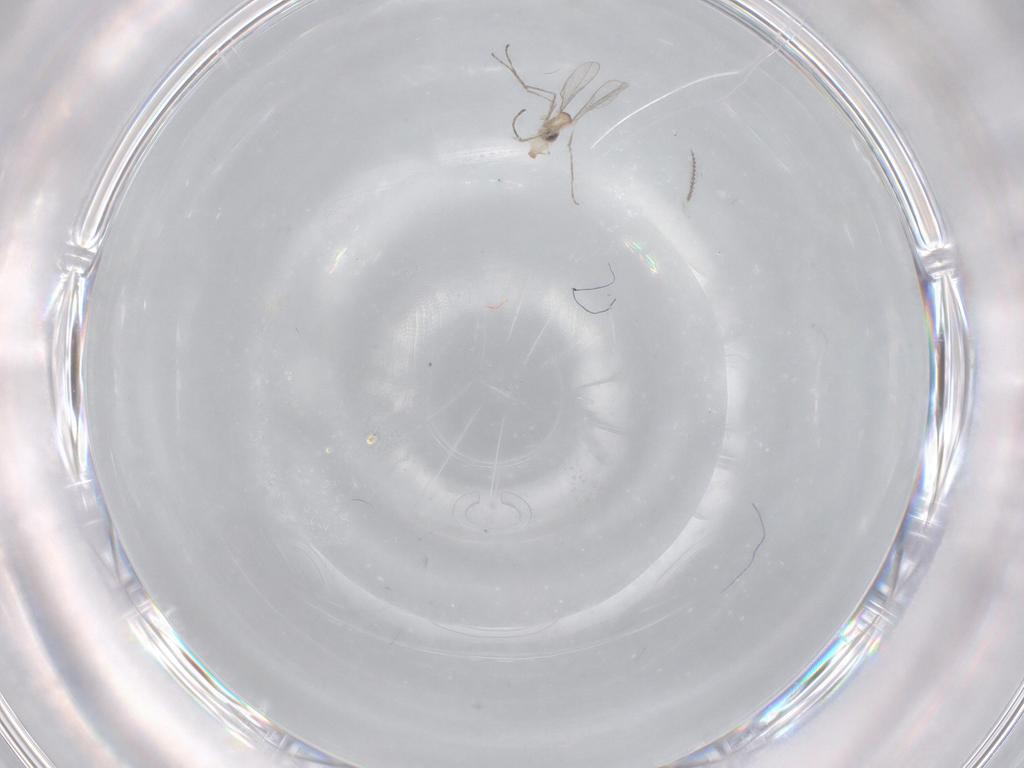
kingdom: Animalia
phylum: Arthropoda
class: Insecta
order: Diptera
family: Cecidomyiidae
